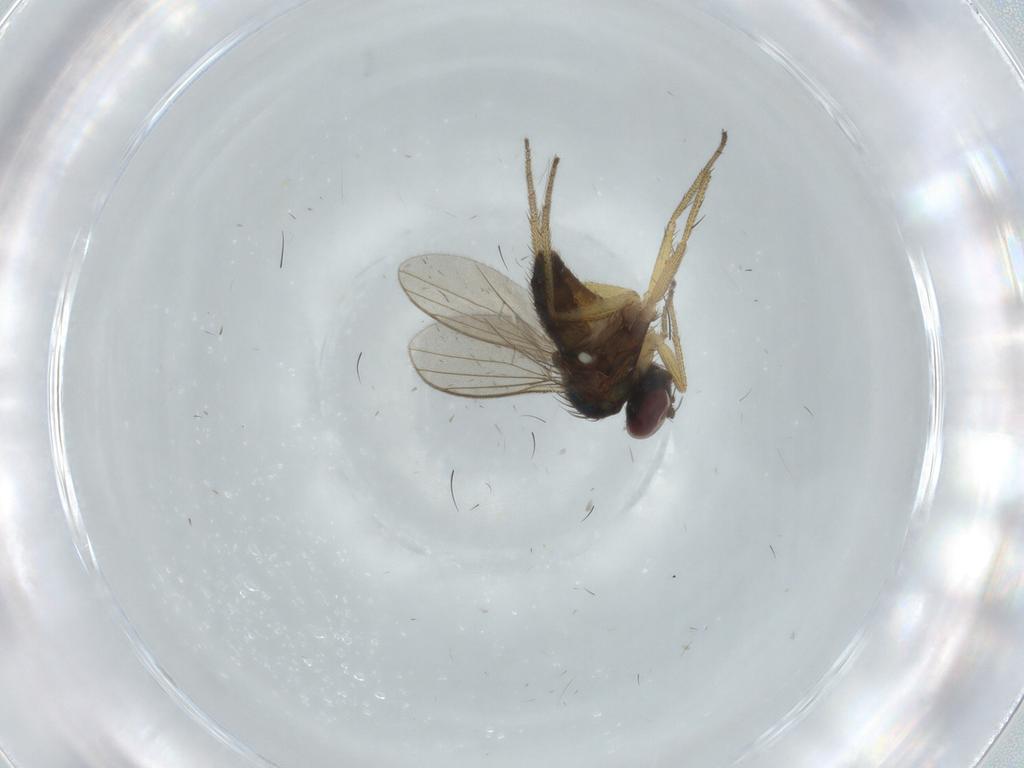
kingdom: Animalia
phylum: Arthropoda
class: Insecta
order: Diptera
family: Dolichopodidae
